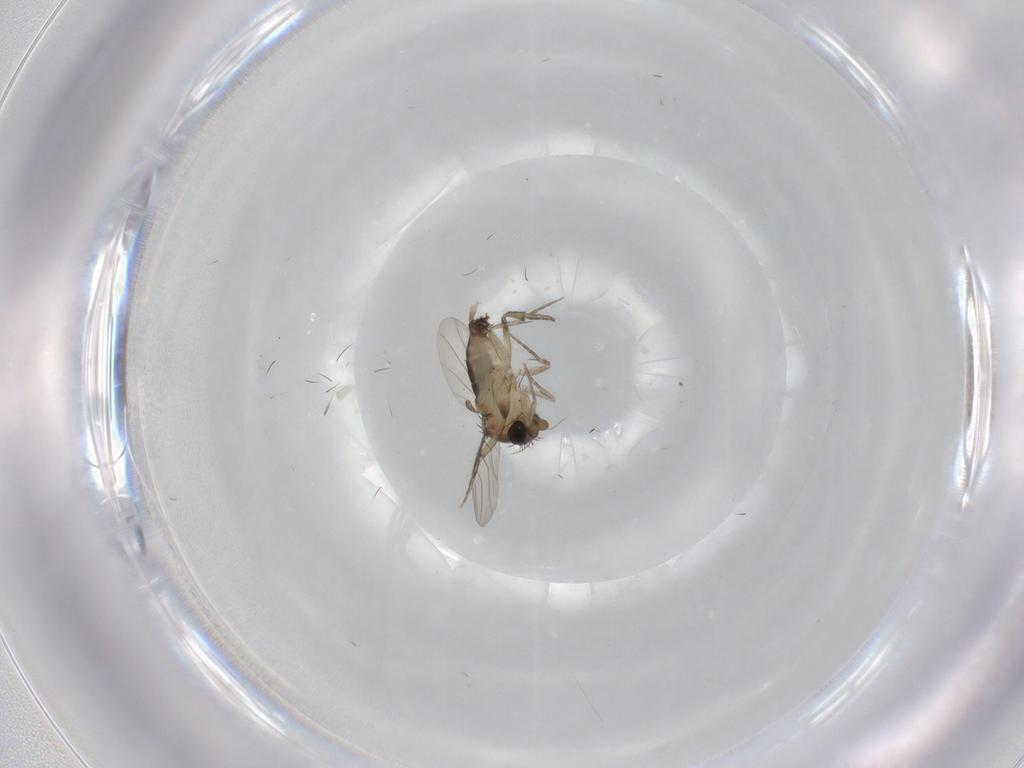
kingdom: Animalia
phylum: Arthropoda
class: Insecta
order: Diptera
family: Phoridae
